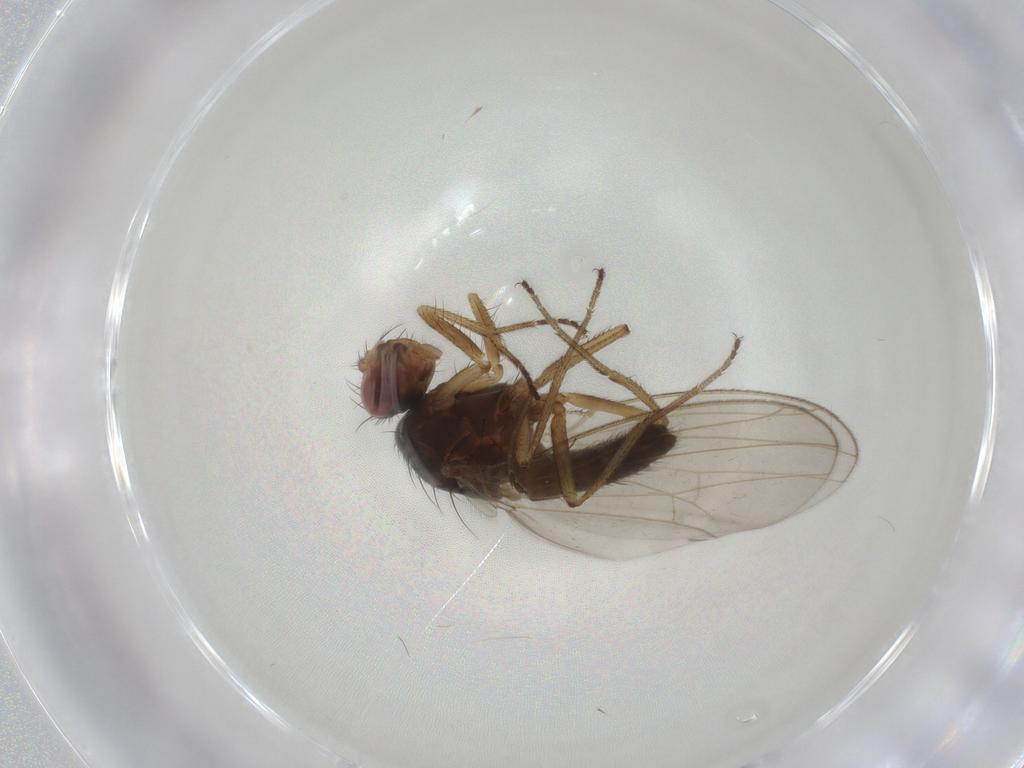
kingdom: Animalia
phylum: Arthropoda
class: Insecta
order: Diptera
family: Drosophilidae
